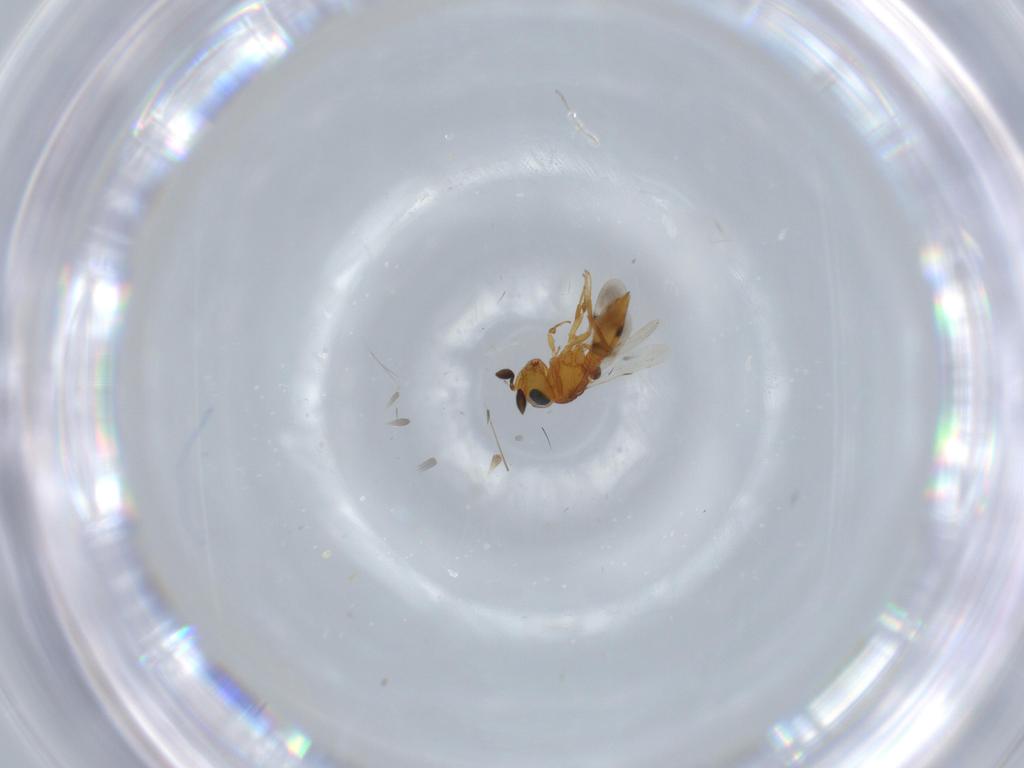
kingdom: Animalia
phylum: Arthropoda
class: Insecta
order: Hymenoptera
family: Scelionidae
